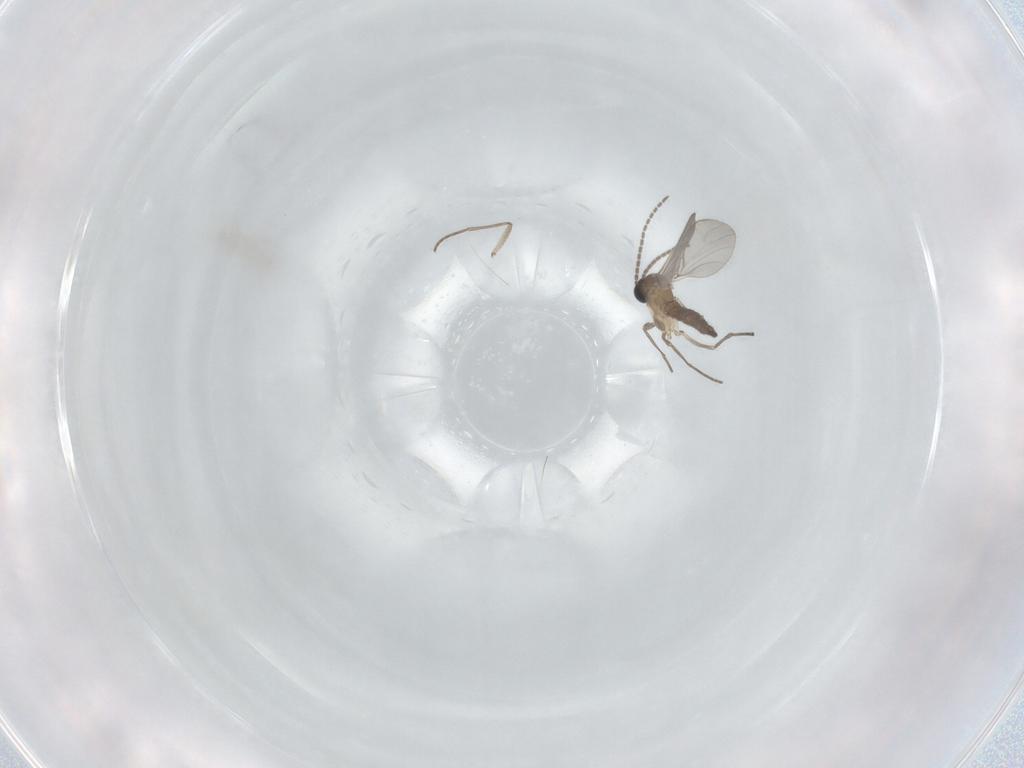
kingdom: Animalia
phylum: Arthropoda
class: Insecta
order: Diptera
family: Sciaridae
